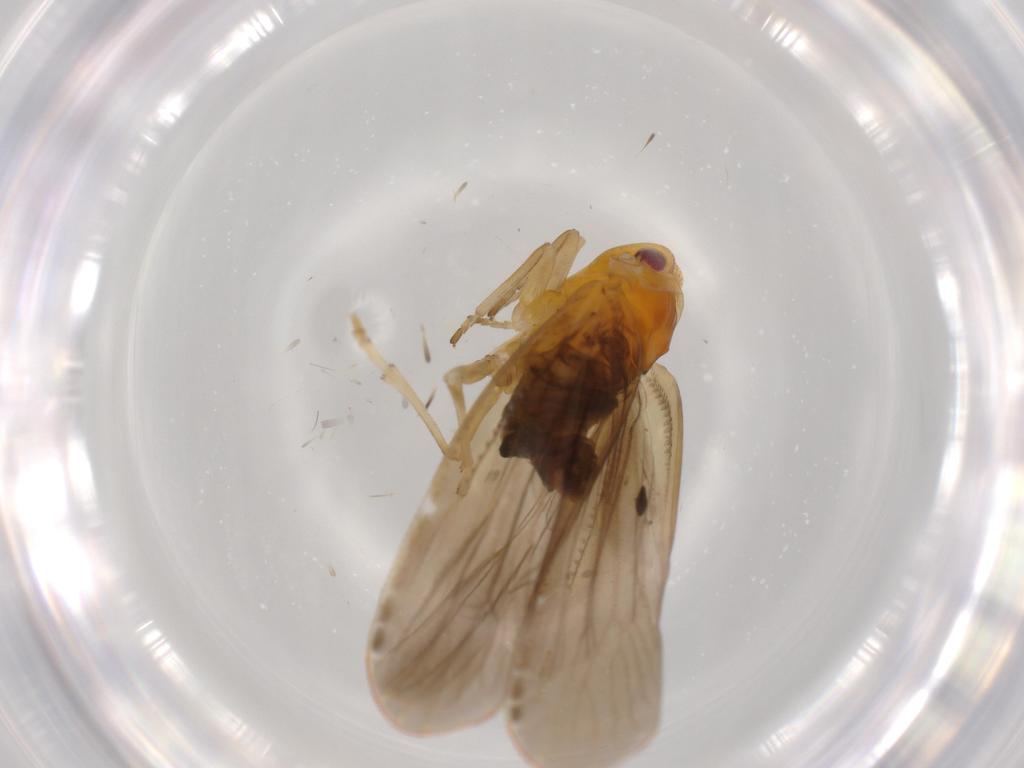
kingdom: Animalia
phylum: Arthropoda
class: Insecta
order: Hemiptera
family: Derbidae
